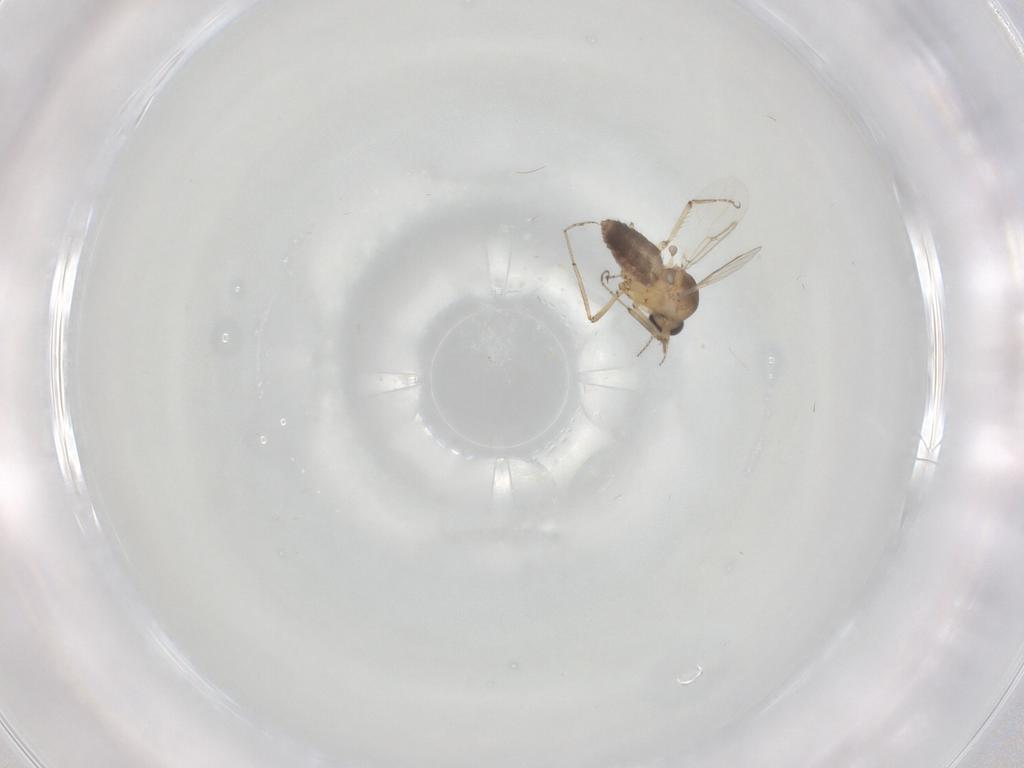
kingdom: Animalia
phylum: Arthropoda
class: Insecta
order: Diptera
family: Ceratopogonidae
